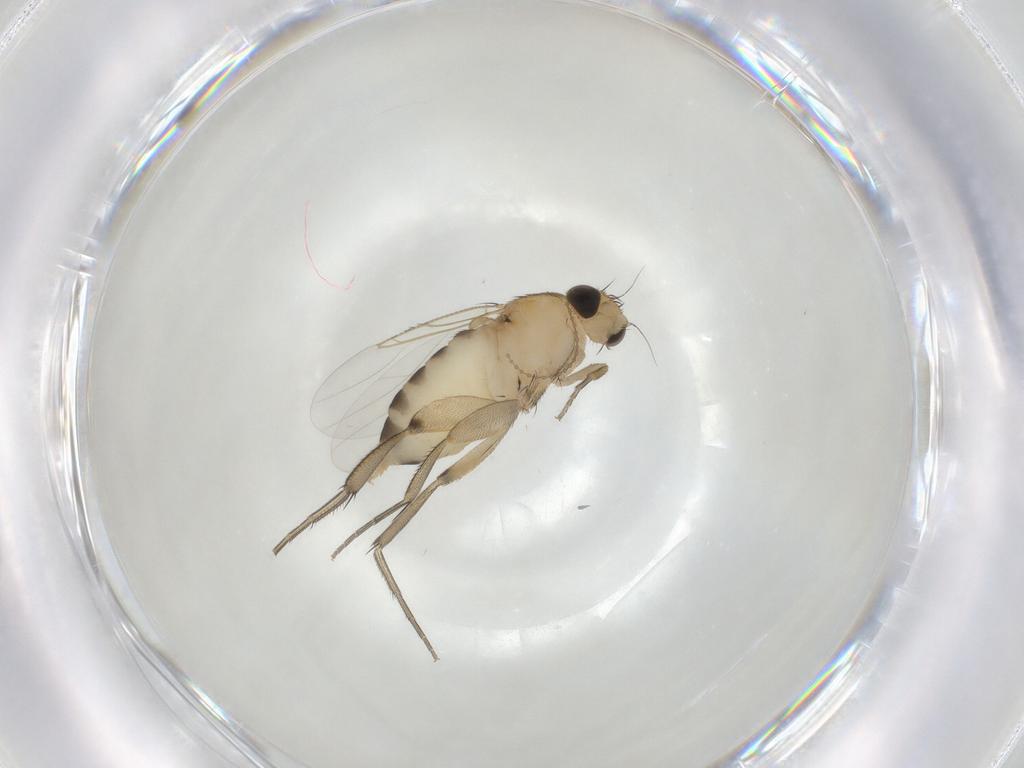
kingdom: Animalia
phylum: Arthropoda
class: Insecta
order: Diptera
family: Cecidomyiidae
